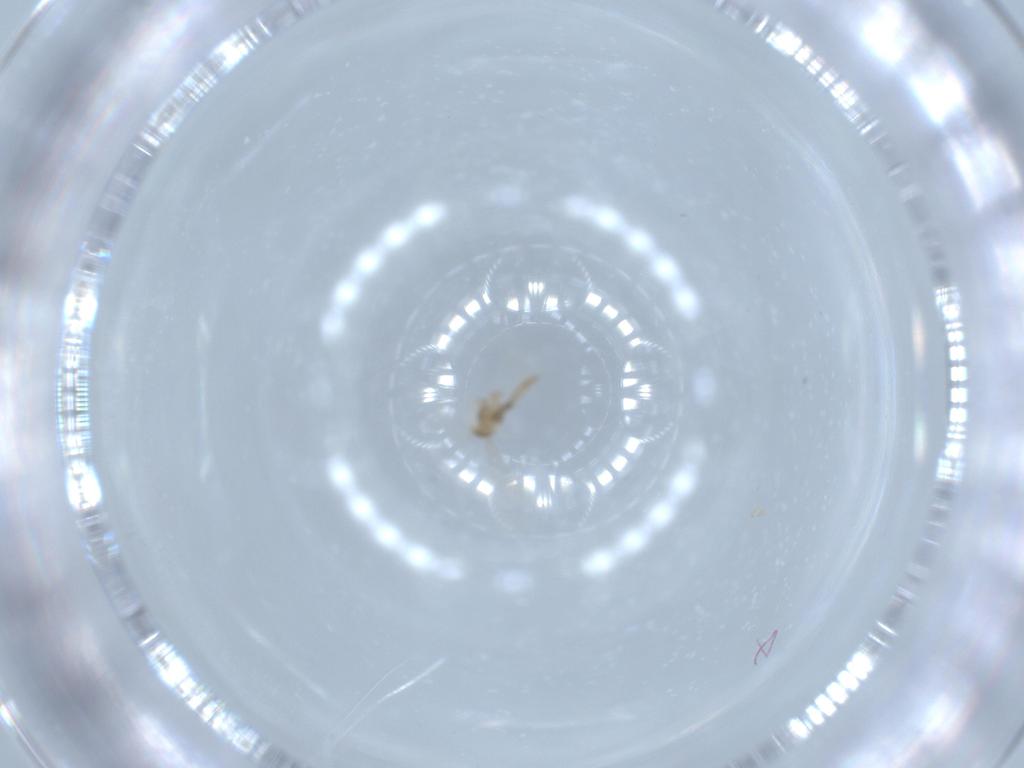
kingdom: Animalia
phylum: Arthropoda
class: Insecta
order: Diptera
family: Cecidomyiidae
